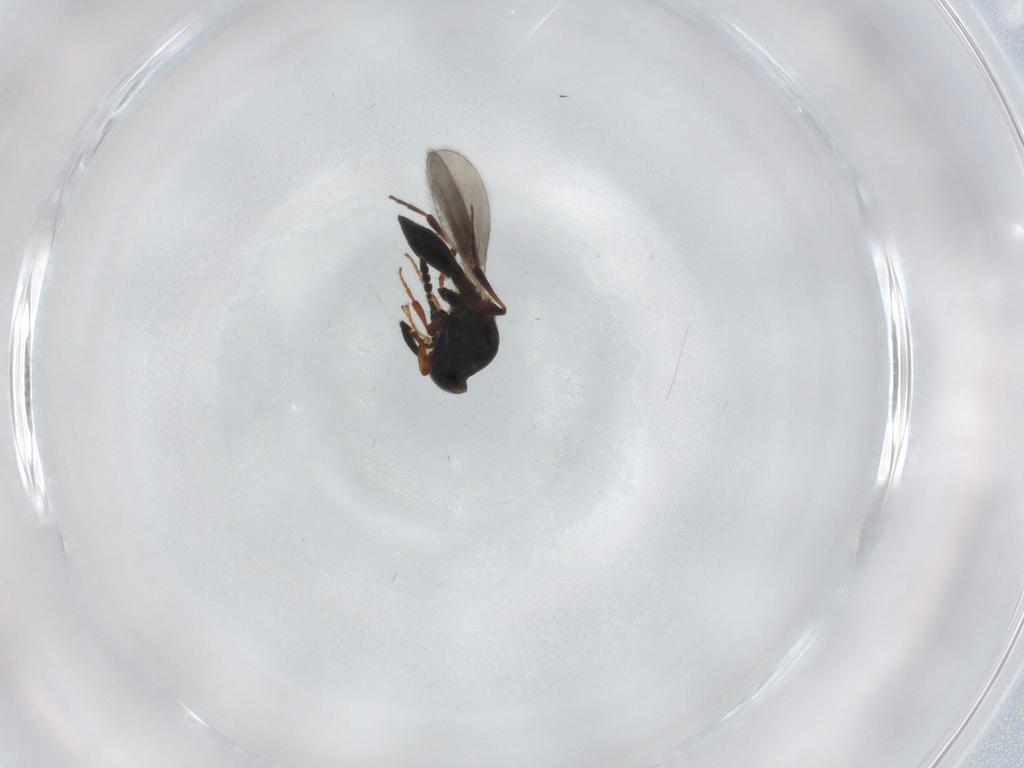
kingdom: Animalia
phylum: Arthropoda
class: Insecta
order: Hymenoptera
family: Platygastridae
